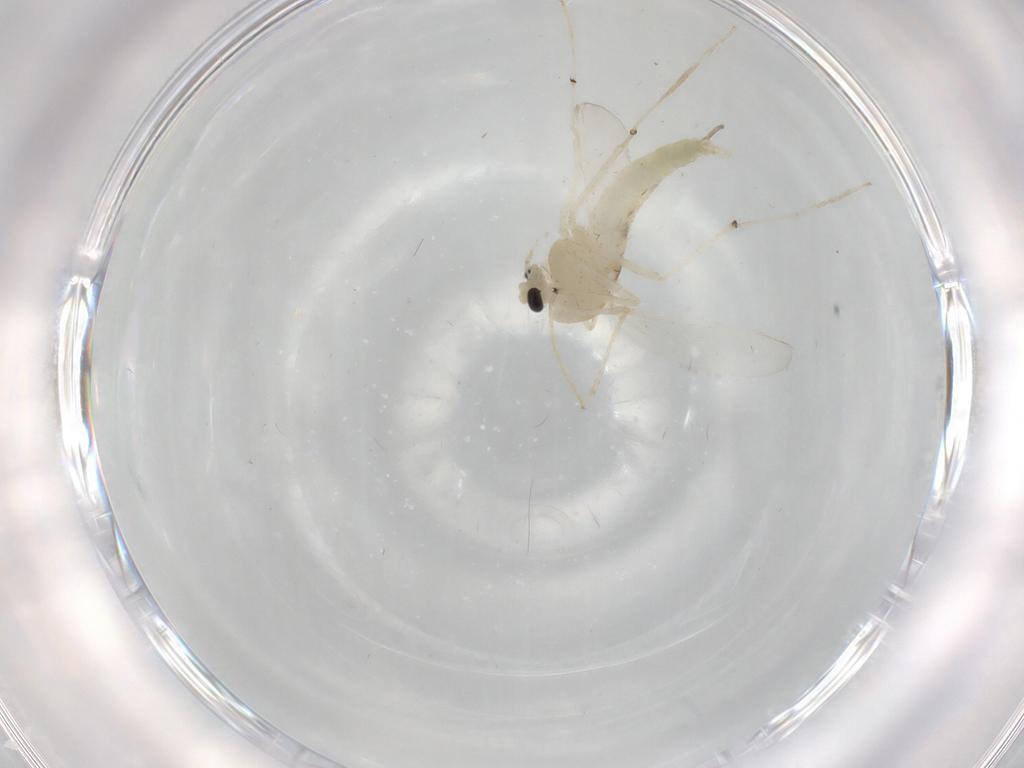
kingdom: Animalia
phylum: Arthropoda
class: Insecta
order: Diptera
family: Chironomidae
